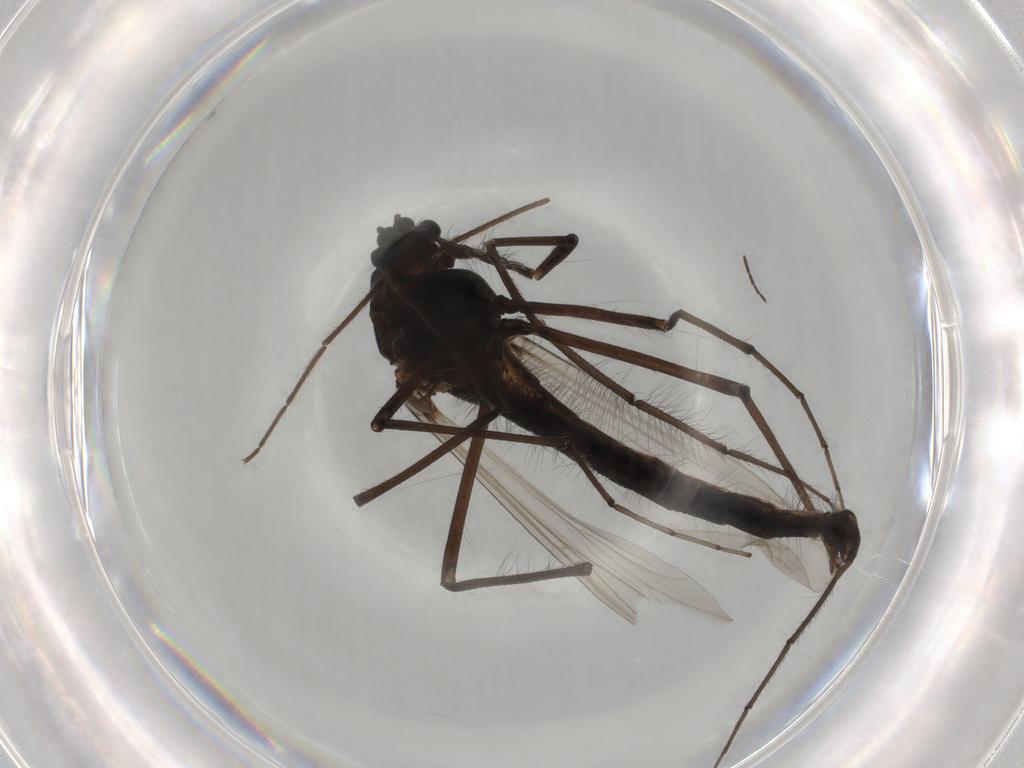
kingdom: Animalia
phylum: Arthropoda
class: Insecta
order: Diptera
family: Chironomidae
